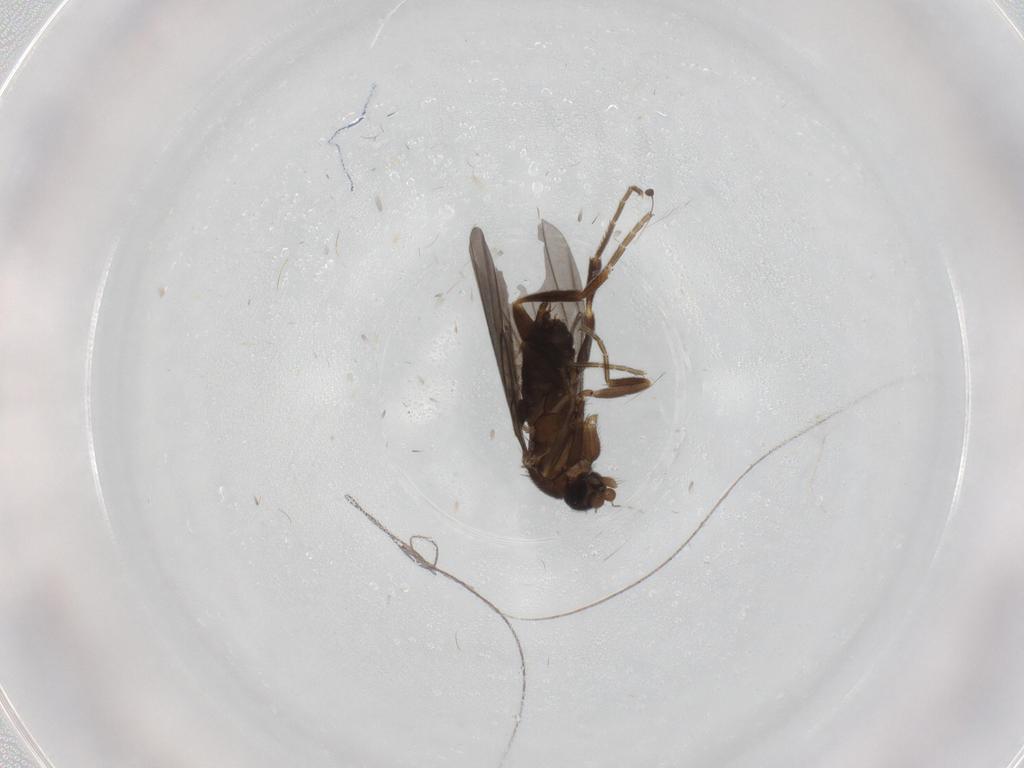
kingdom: Animalia
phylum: Arthropoda
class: Insecta
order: Diptera
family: Phoridae
